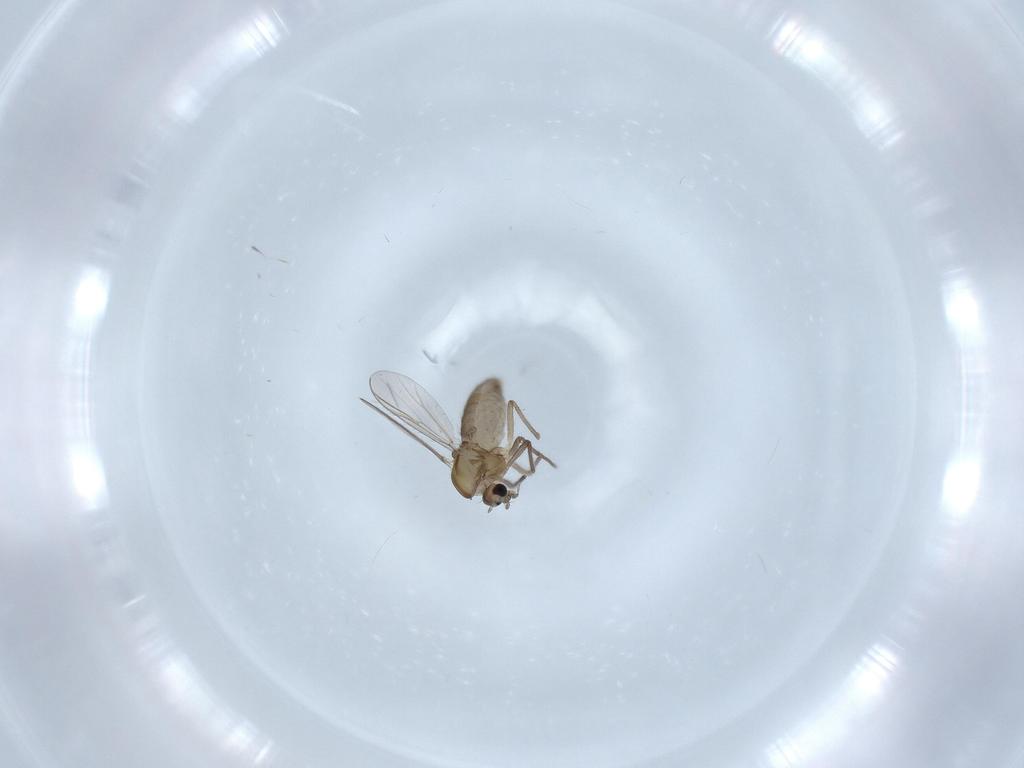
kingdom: Animalia
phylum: Arthropoda
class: Insecta
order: Diptera
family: Chironomidae
